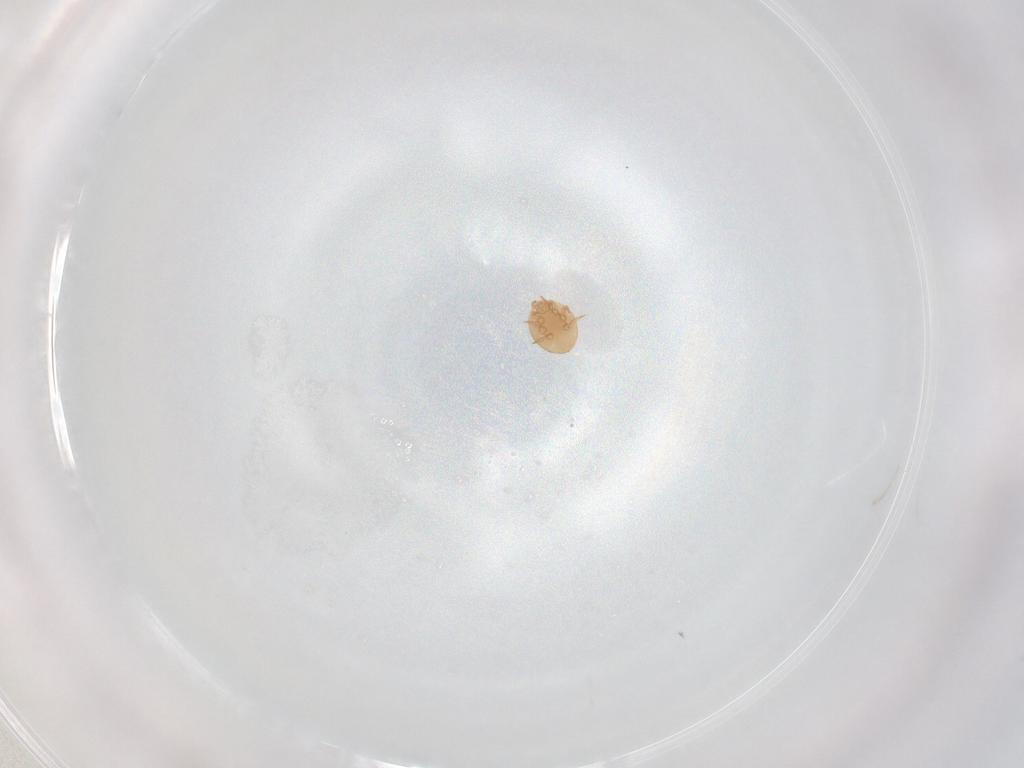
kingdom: Animalia
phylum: Arthropoda
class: Arachnida
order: Mesostigmata
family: Trematuridae
